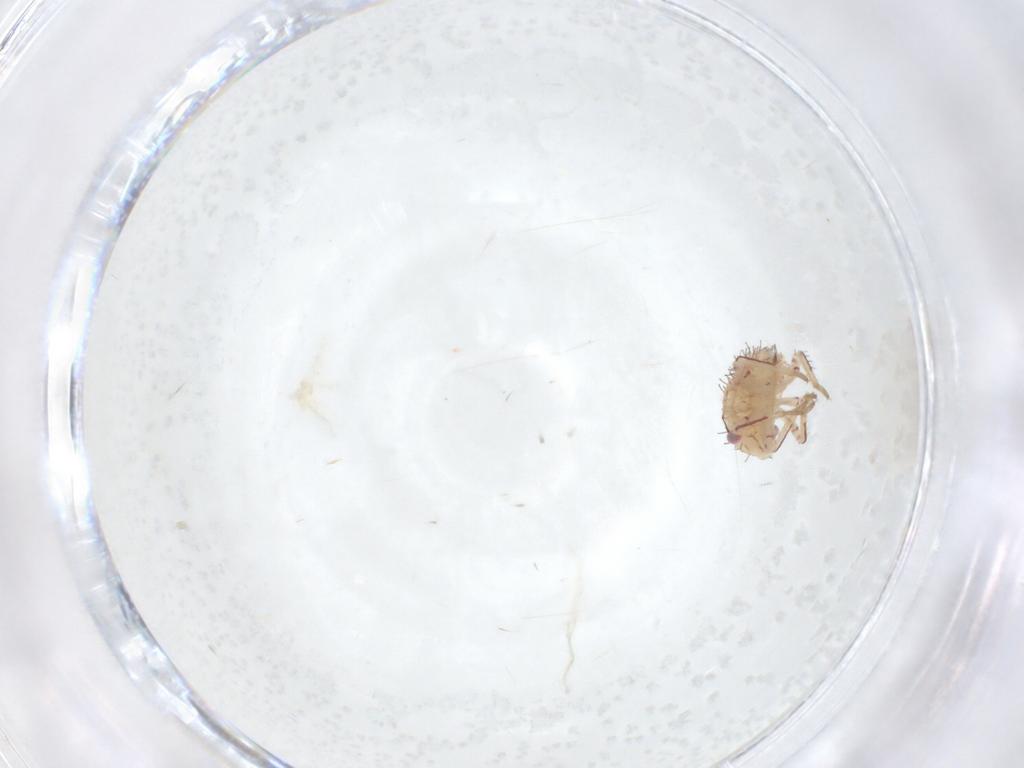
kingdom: Animalia
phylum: Arthropoda
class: Insecta
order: Hemiptera
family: Miridae
